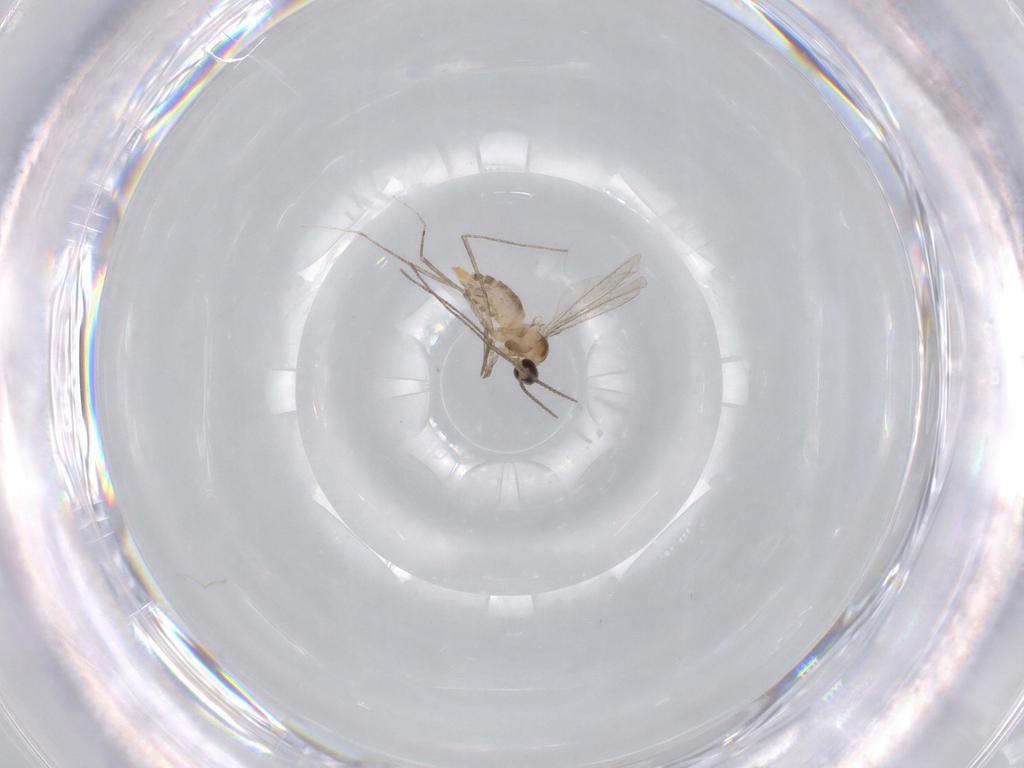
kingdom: Animalia
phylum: Arthropoda
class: Insecta
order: Diptera
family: Cecidomyiidae
